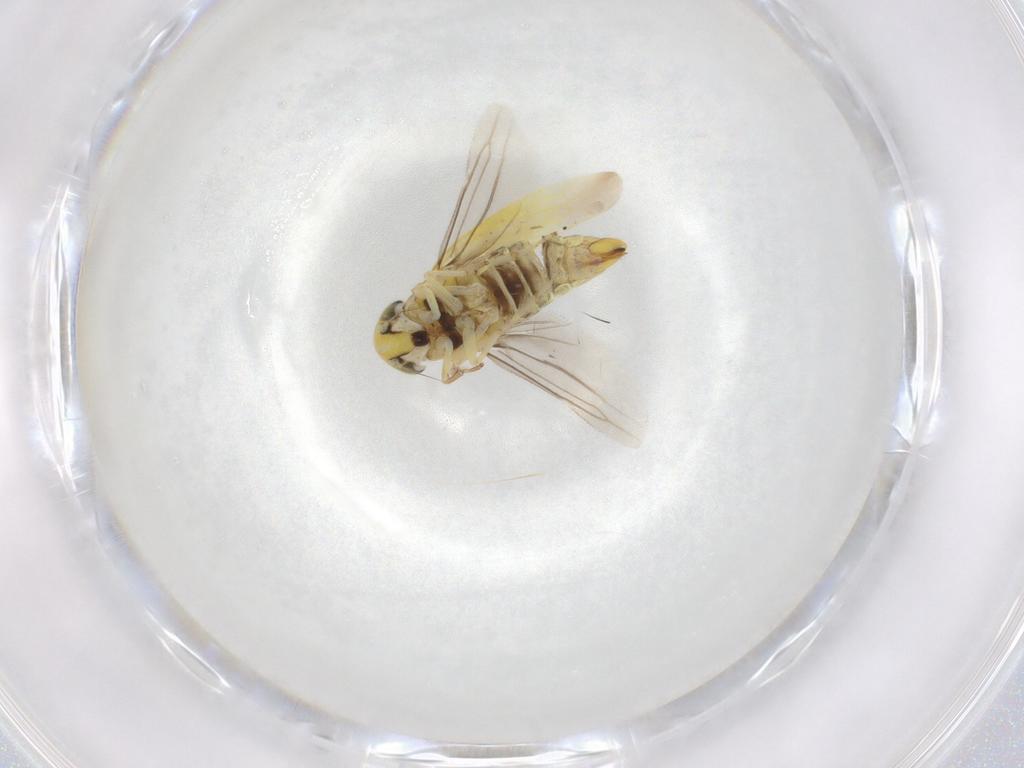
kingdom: Animalia
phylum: Arthropoda
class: Insecta
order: Hemiptera
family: Cicadellidae
